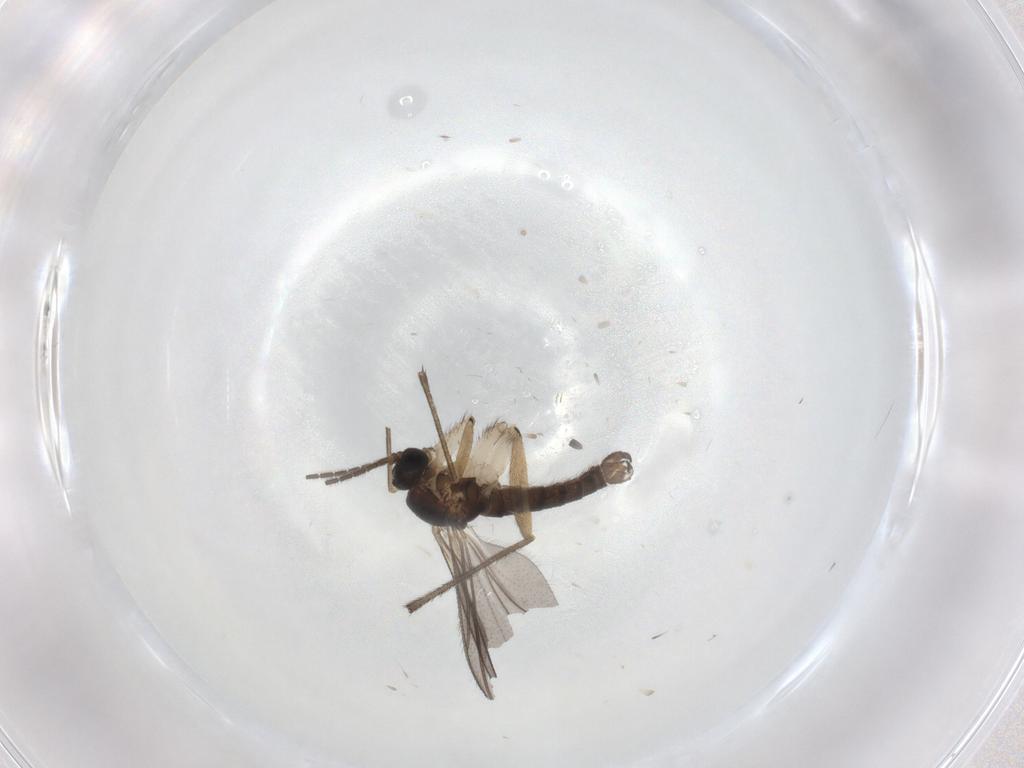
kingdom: Animalia
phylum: Arthropoda
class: Insecta
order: Diptera
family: Sciaridae
